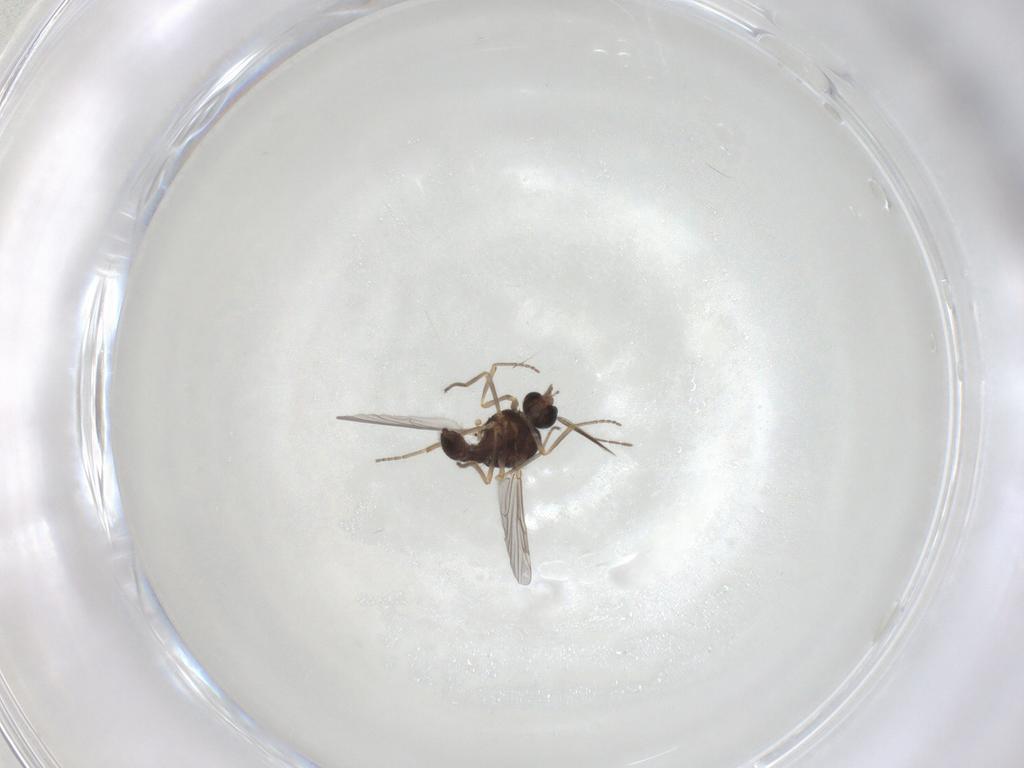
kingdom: Animalia
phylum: Arthropoda
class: Insecta
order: Diptera
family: Ceratopogonidae
